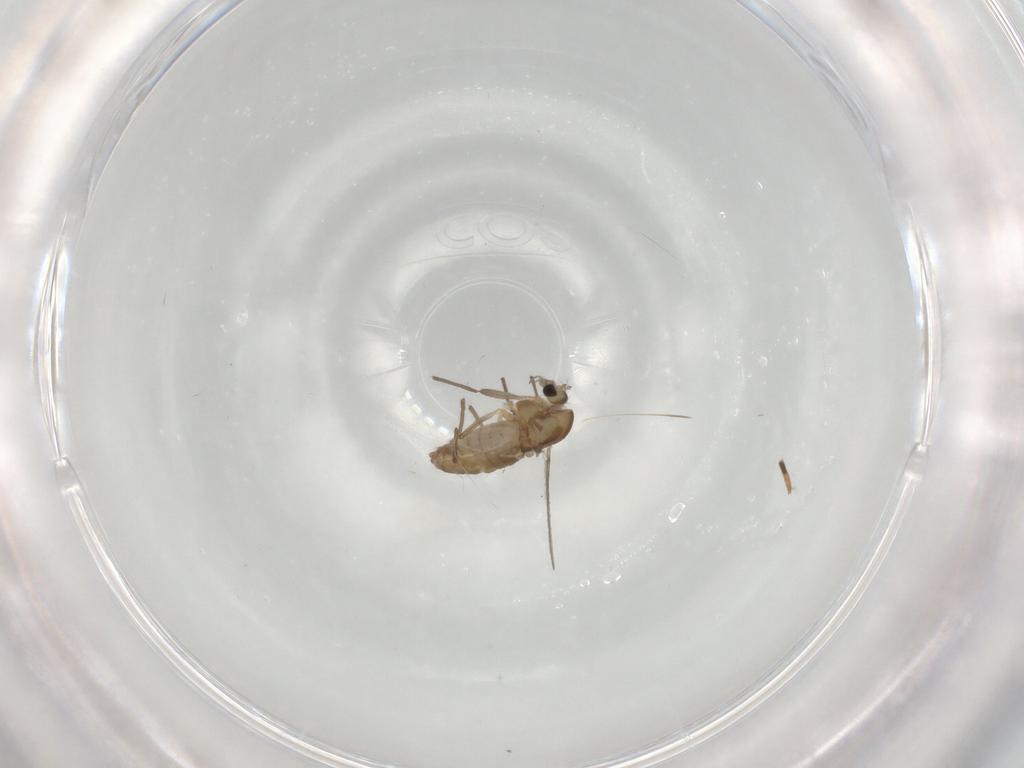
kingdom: Animalia
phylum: Arthropoda
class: Insecta
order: Diptera
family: Chironomidae
